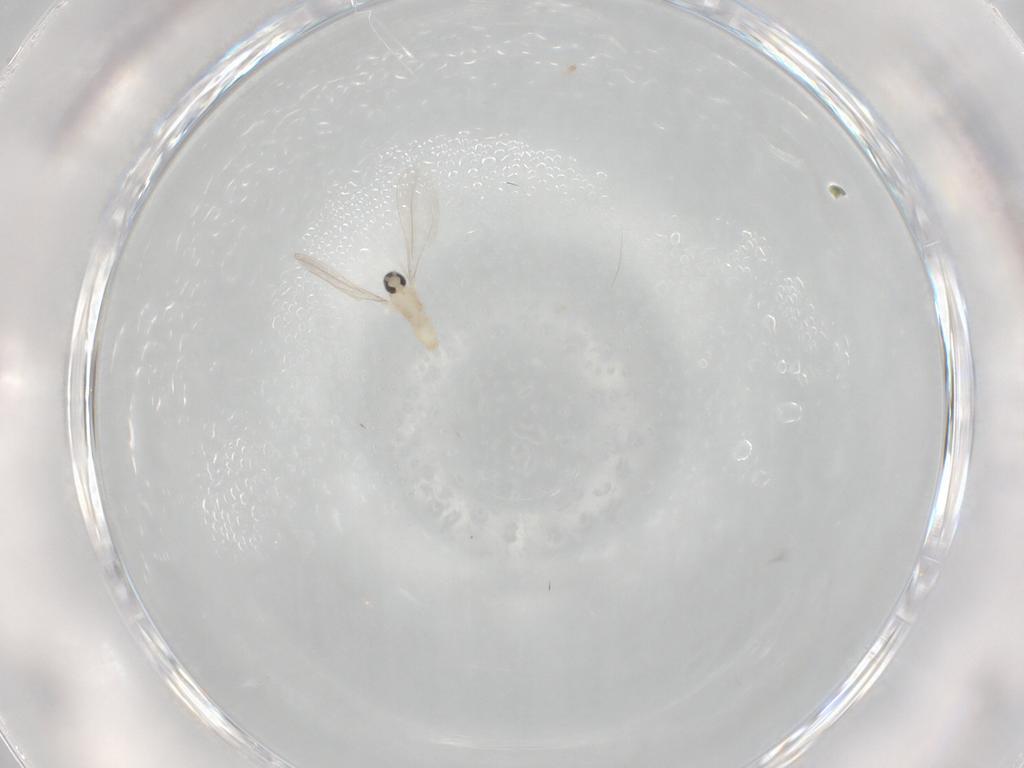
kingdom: Animalia
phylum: Arthropoda
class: Insecta
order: Diptera
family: Cecidomyiidae
